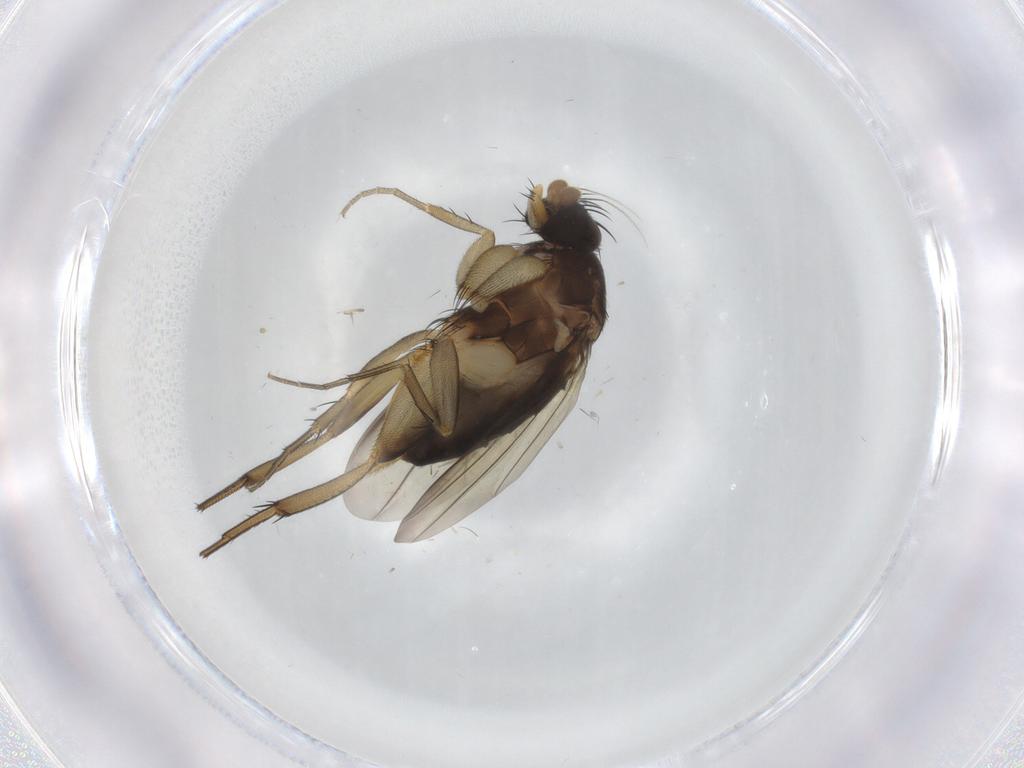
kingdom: Animalia
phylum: Arthropoda
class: Insecta
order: Diptera
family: Phoridae
